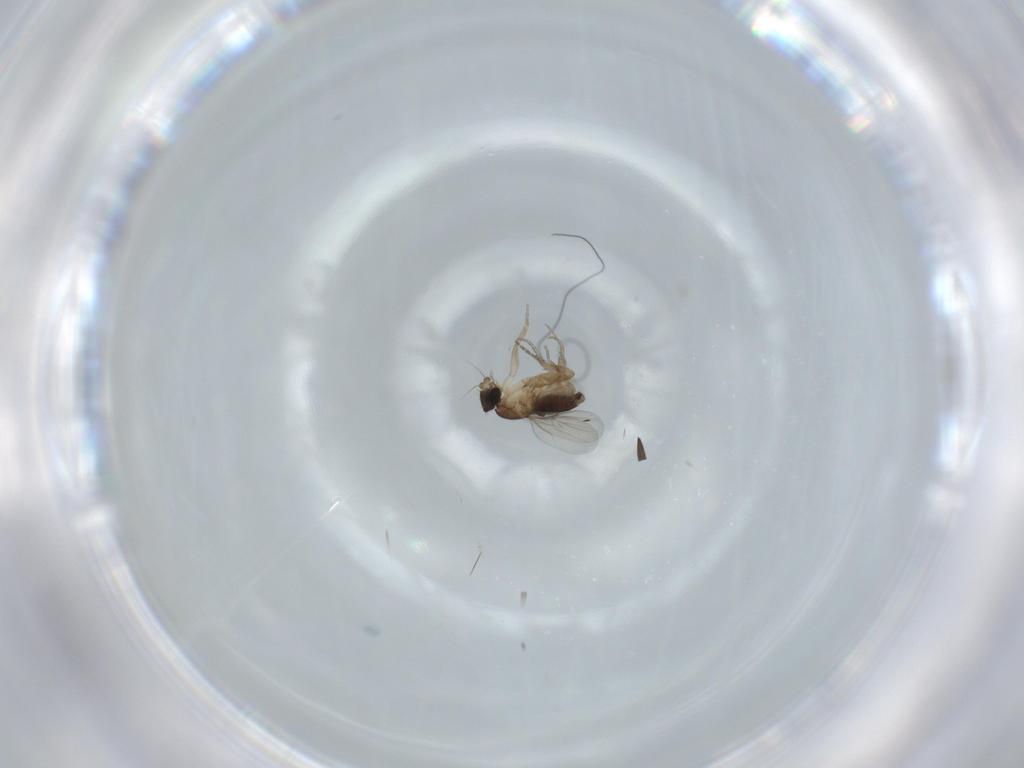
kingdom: Animalia
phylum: Arthropoda
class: Insecta
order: Diptera
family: Phoridae
